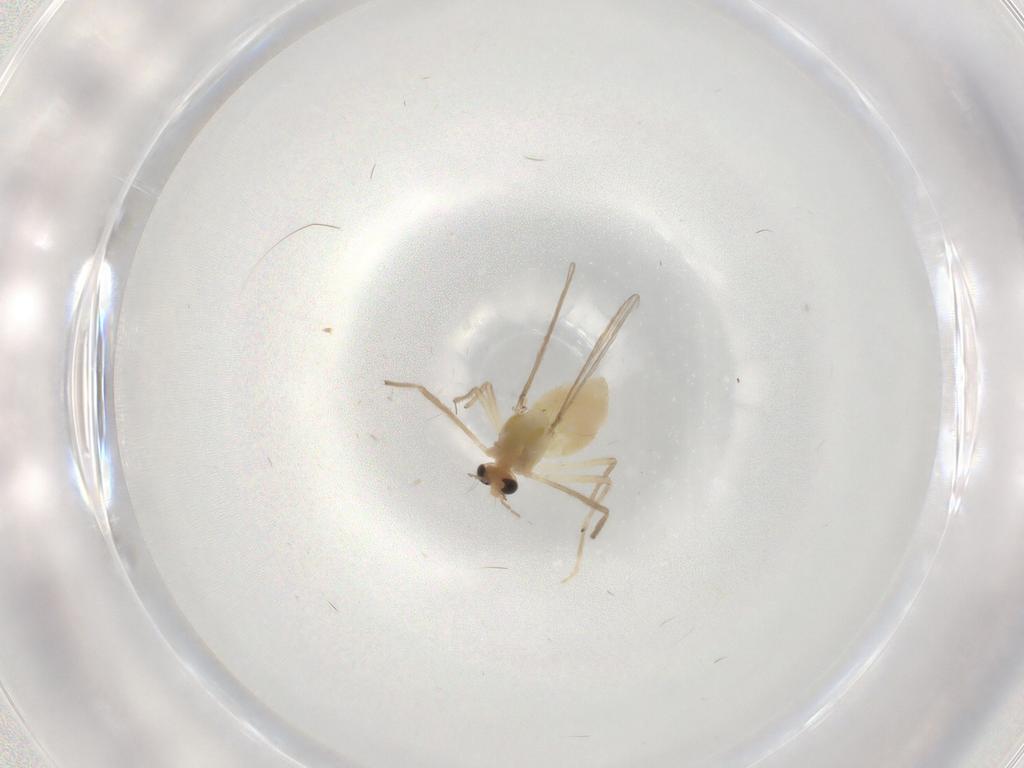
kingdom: Animalia
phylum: Arthropoda
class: Insecta
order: Diptera
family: Chironomidae
